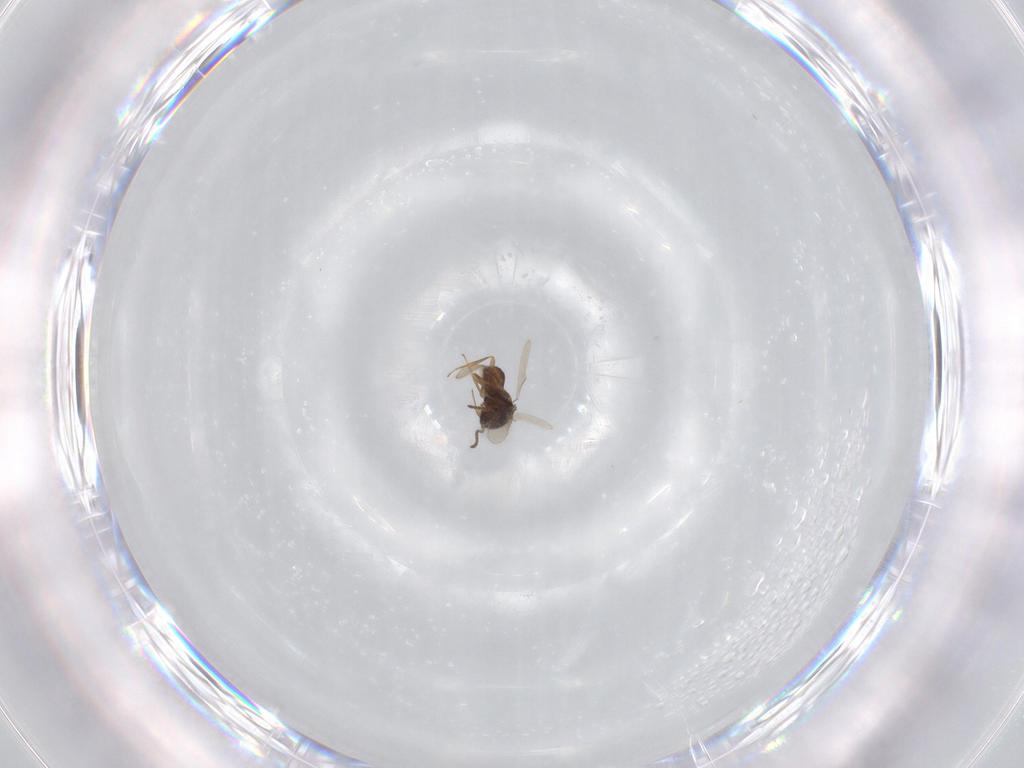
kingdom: Animalia
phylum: Arthropoda
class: Insecta
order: Hymenoptera
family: Scelionidae
